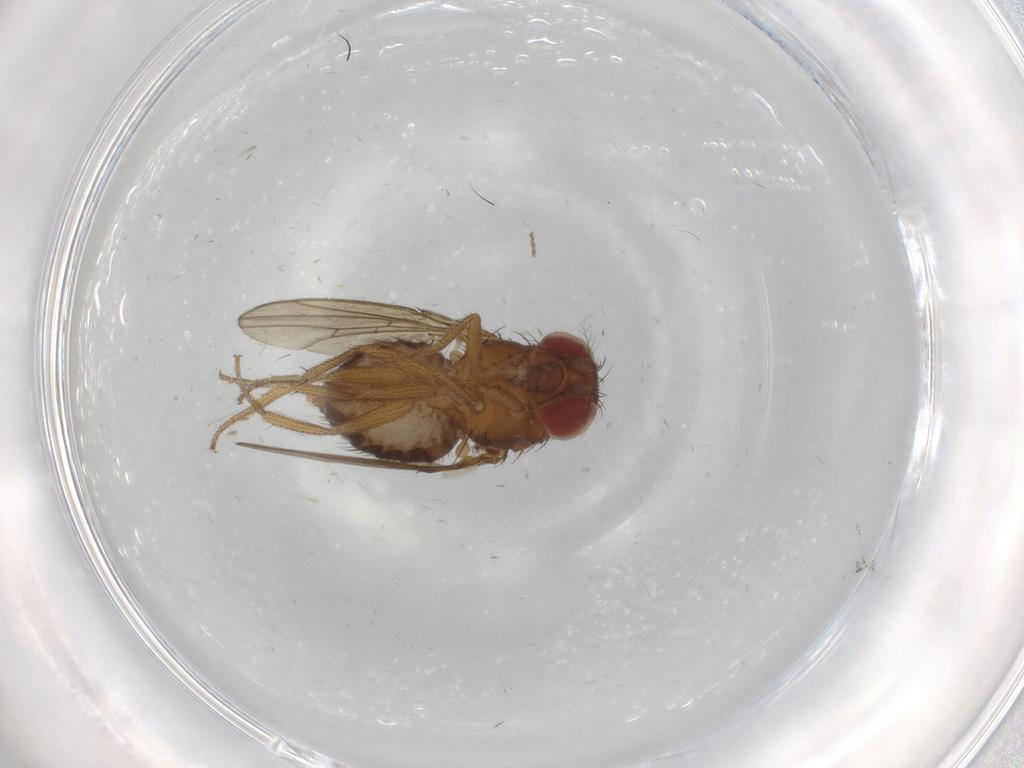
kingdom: Animalia
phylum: Arthropoda
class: Insecta
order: Diptera
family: Drosophilidae
